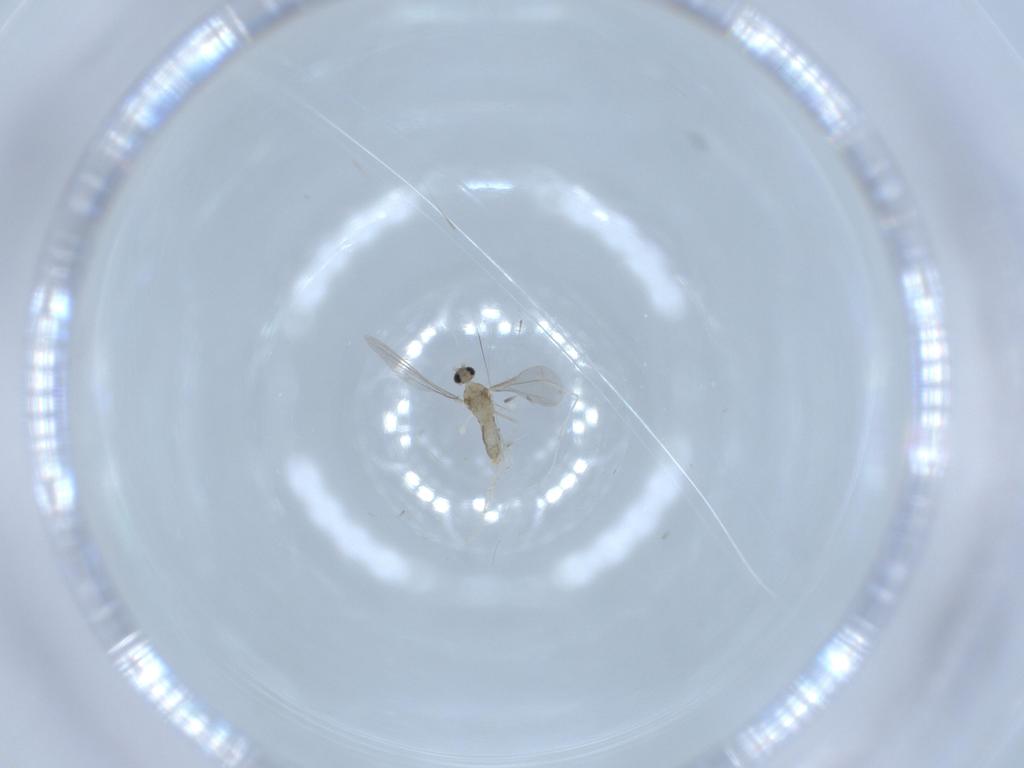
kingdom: Animalia
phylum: Arthropoda
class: Insecta
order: Diptera
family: Cecidomyiidae
